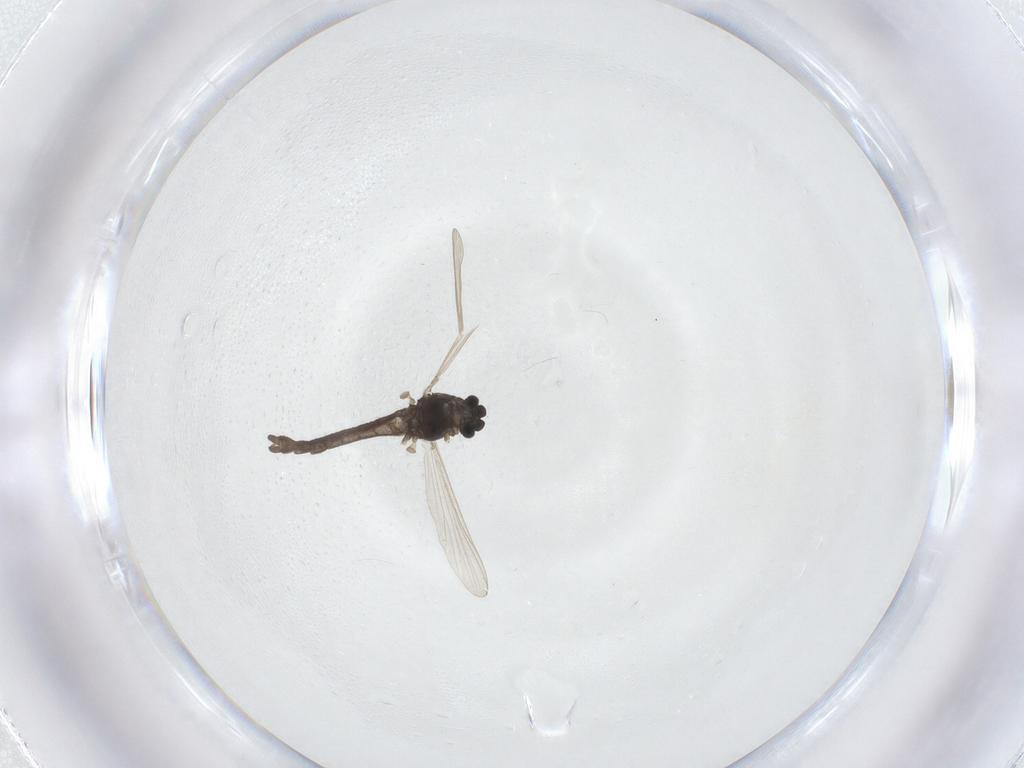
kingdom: Animalia
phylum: Arthropoda
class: Insecta
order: Diptera
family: Chironomidae
